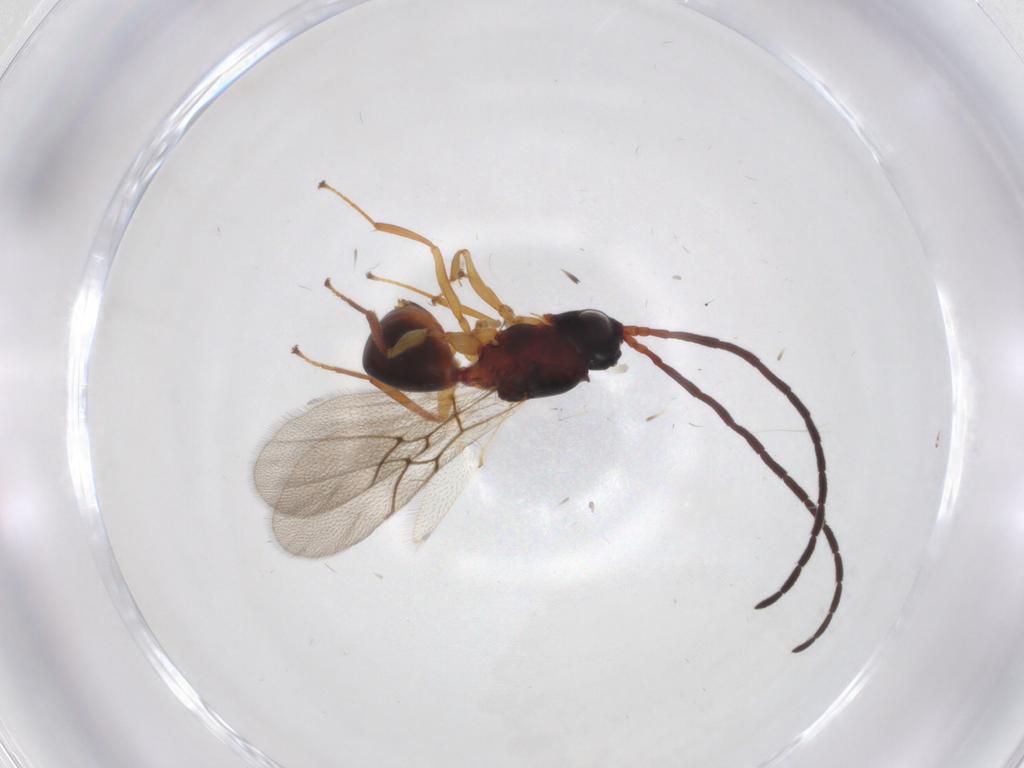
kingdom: Animalia
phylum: Arthropoda
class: Insecta
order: Hymenoptera
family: Figitidae
